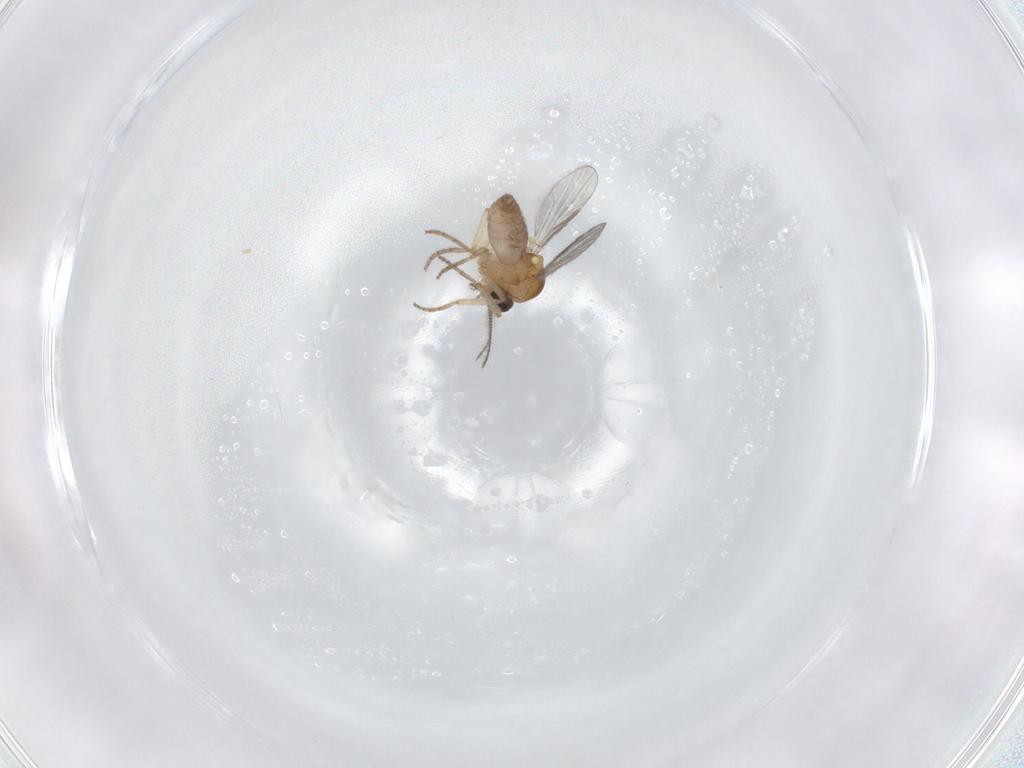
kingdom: Animalia
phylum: Arthropoda
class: Insecta
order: Diptera
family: Ceratopogonidae
